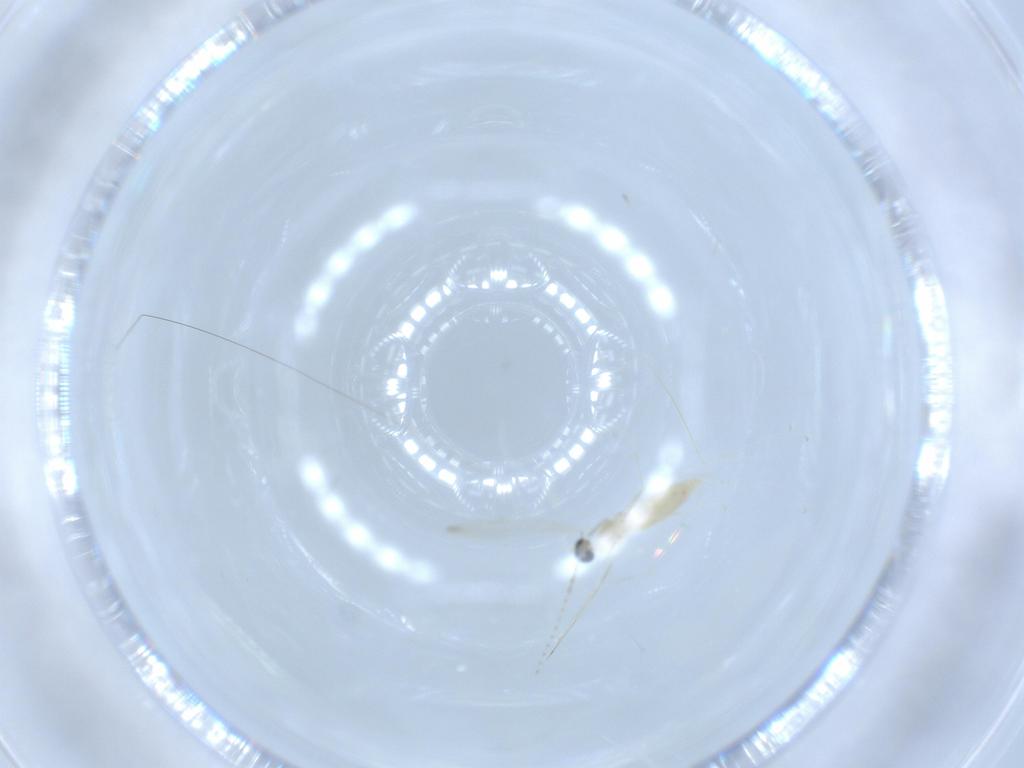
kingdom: Animalia
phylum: Arthropoda
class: Insecta
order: Diptera
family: Cecidomyiidae
